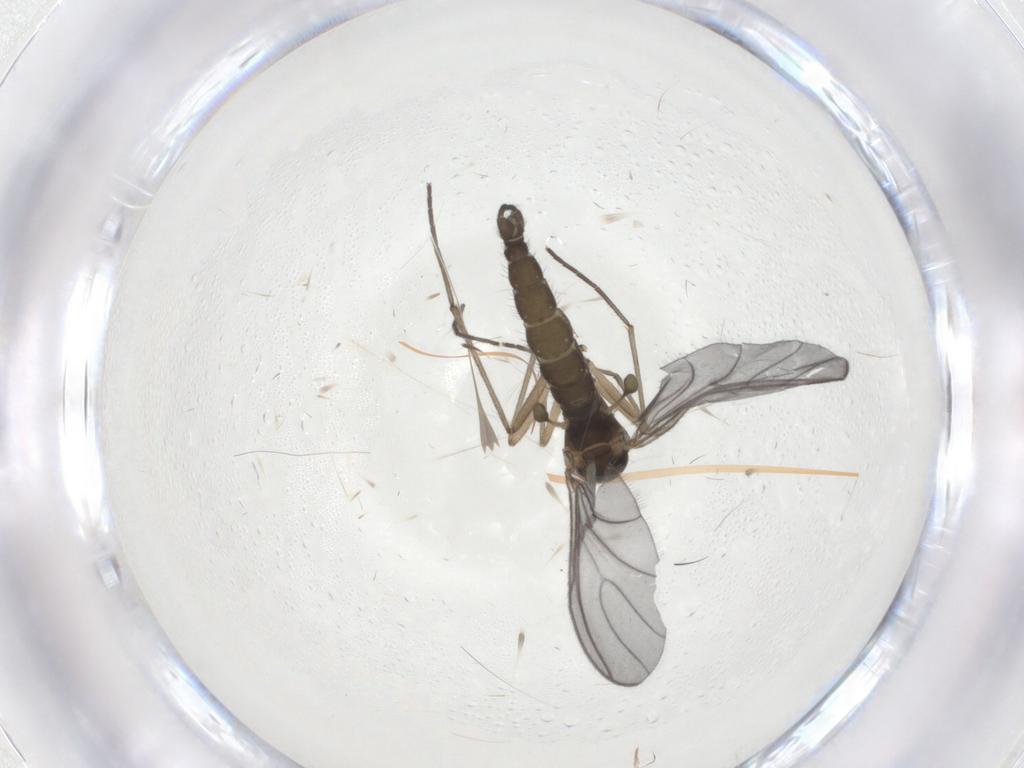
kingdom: Animalia
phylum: Arthropoda
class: Insecta
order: Diptera
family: Sciaridae
